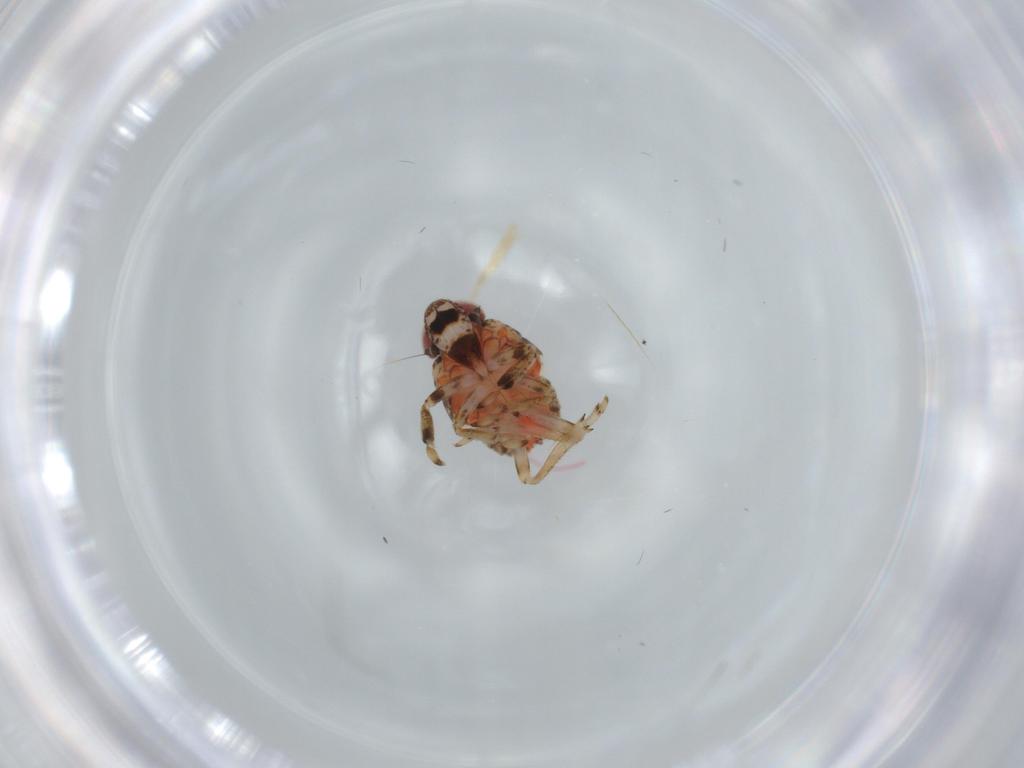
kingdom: Animalia
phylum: Arthropoda
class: Insecta
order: Hemiptera
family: Issidae
